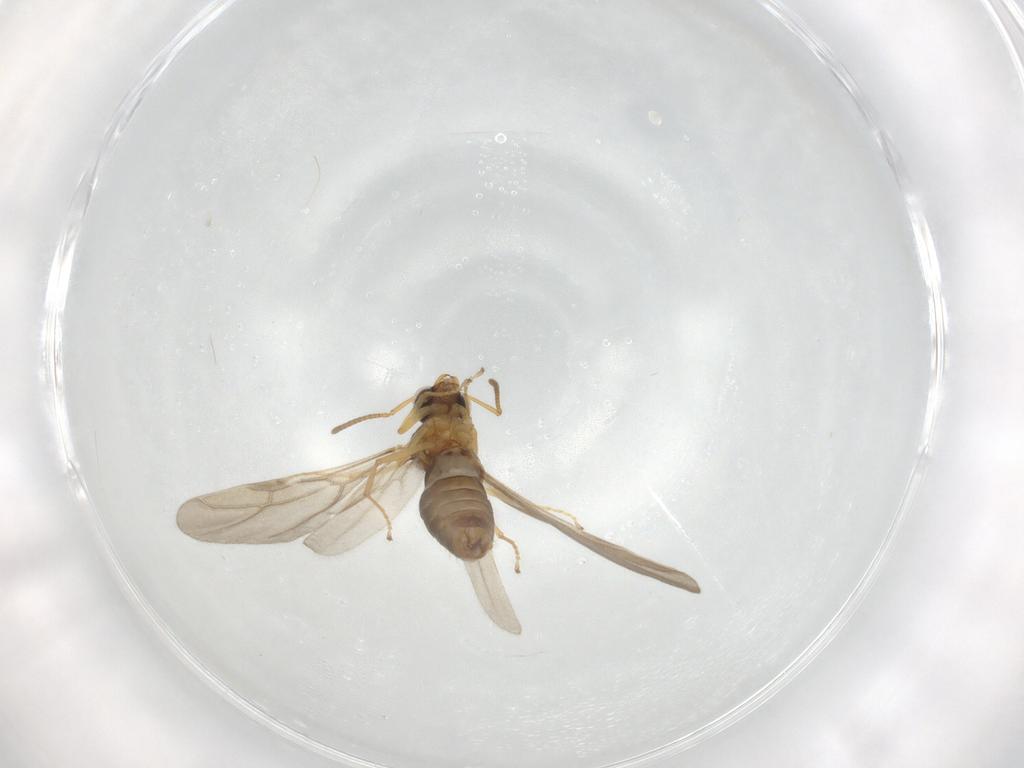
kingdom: Animalia
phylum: Arthropoda
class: Insecta
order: Hymenoptera
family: Formicidae
